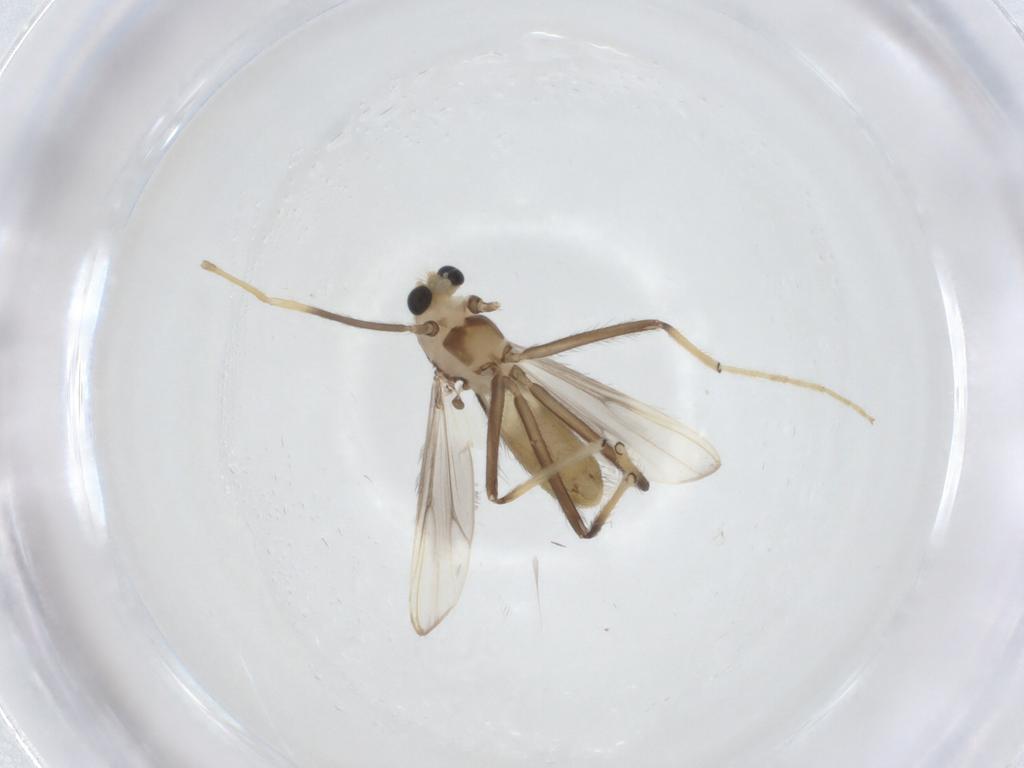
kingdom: Animalia
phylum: Arthropoda
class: Insecta
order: Diptera
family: Chironomidae
